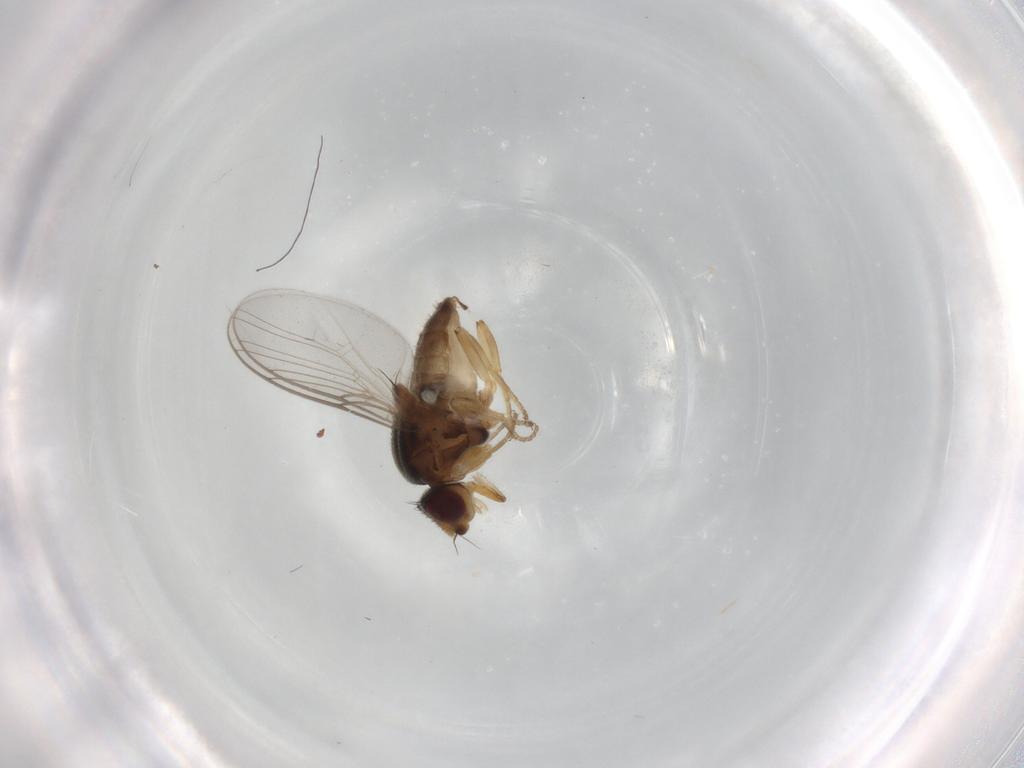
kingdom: Animalia
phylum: Arthropoda
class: Insecta
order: Diptera
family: Chloropidae
